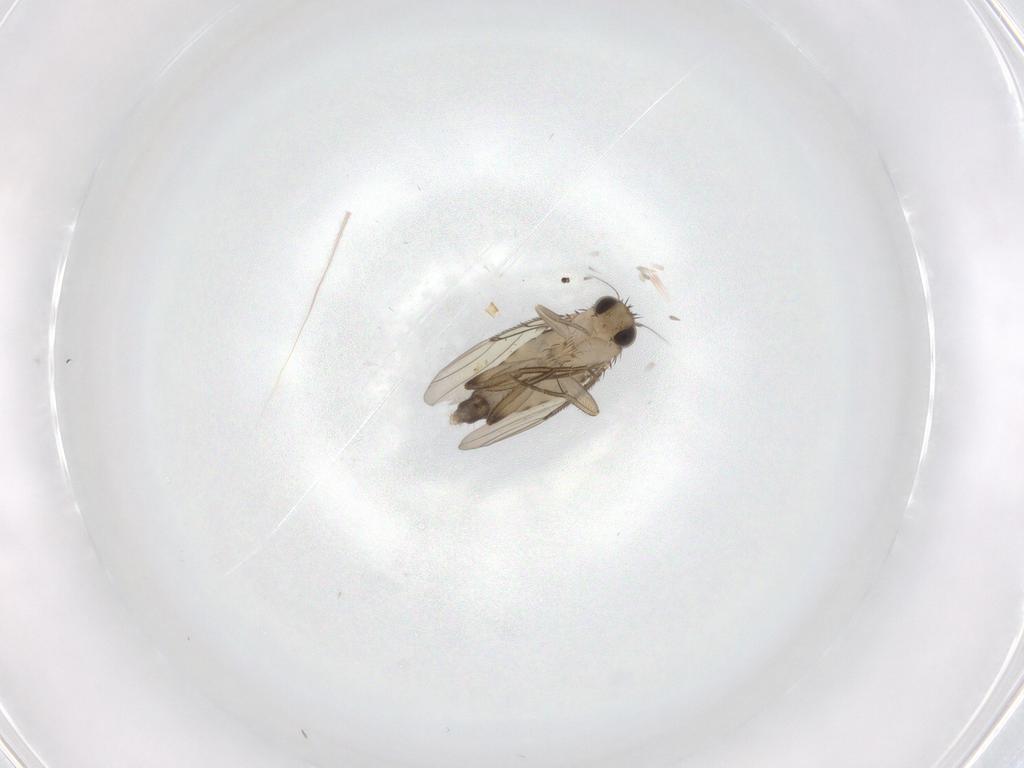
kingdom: Animalia
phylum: Arthropoda
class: Insecta
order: Diptera
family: Phoridae
